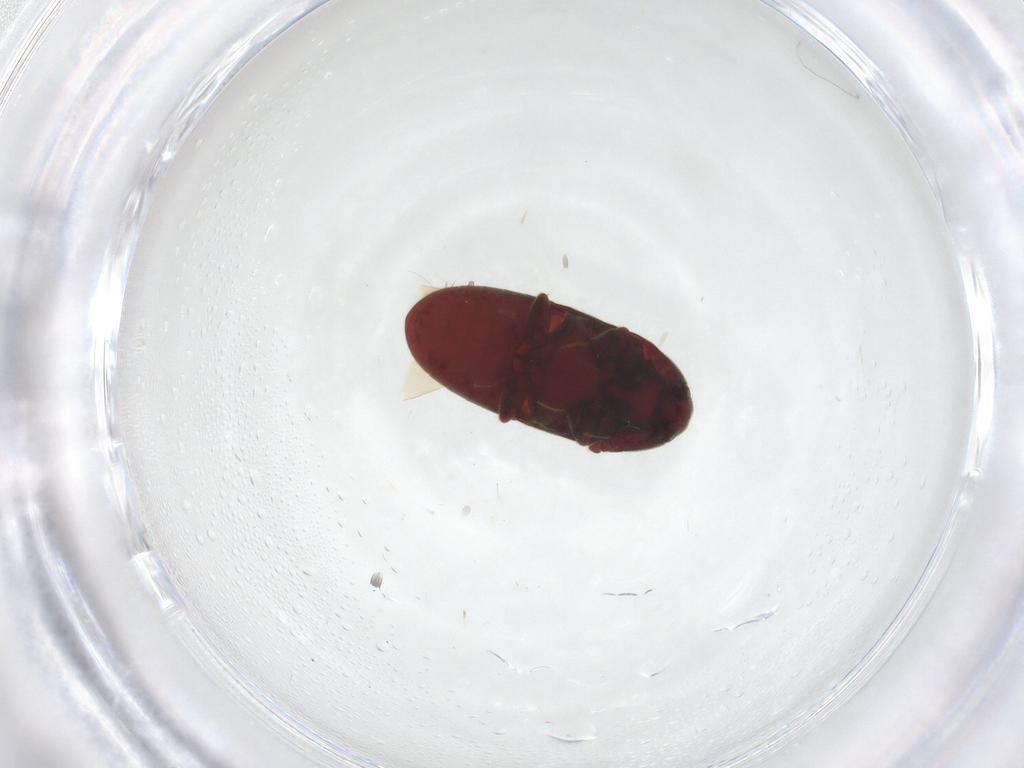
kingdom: Animalia
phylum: Arthropoda
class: Insecta
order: Coleoptera
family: Throscidae
